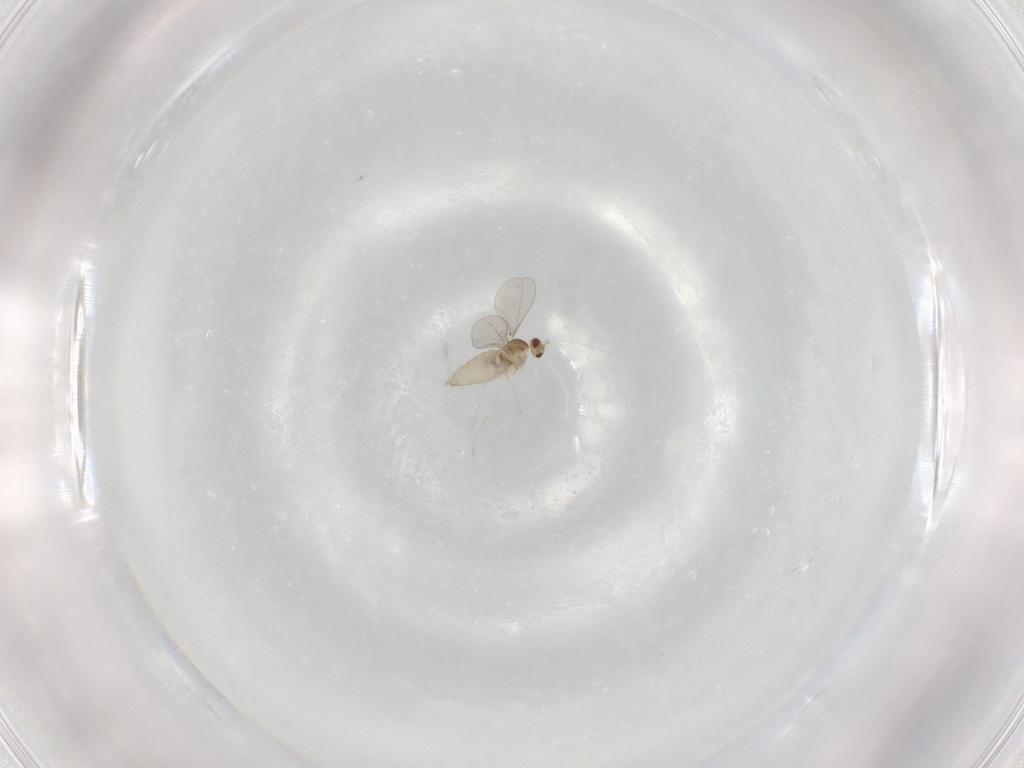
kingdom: Animalia
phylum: Arthropoda
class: Insecta
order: Diptera
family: Cecidomyiidae
